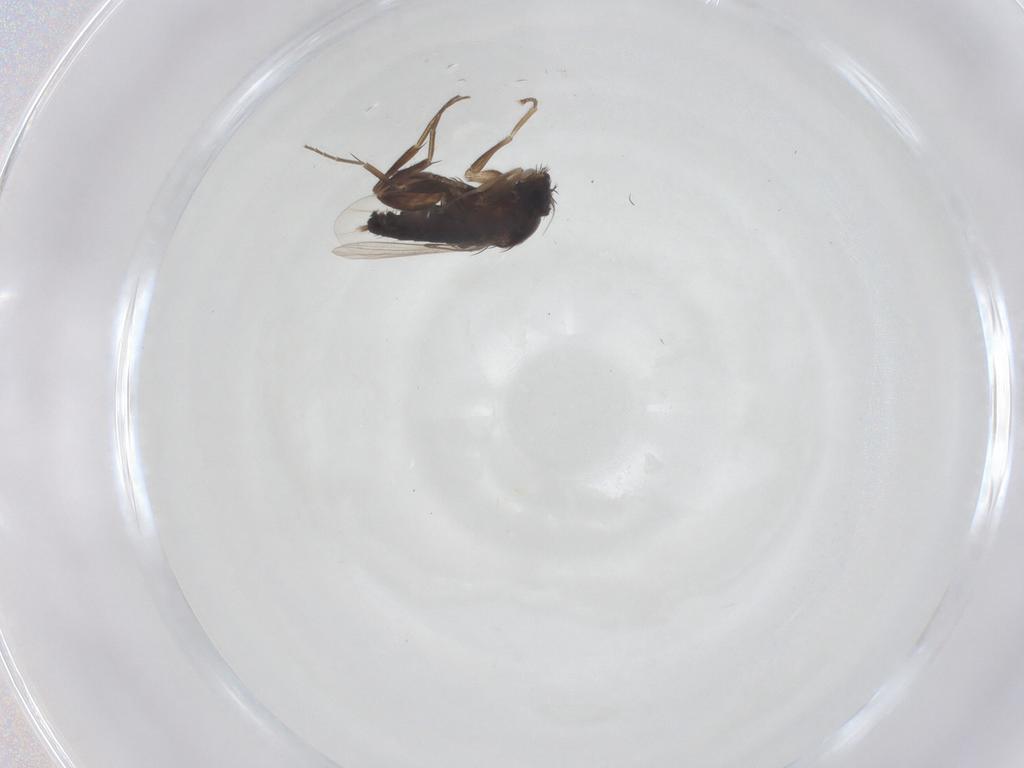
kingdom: Animalia
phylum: Arthropoda
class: Insecta
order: Diptera
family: Phoridae
